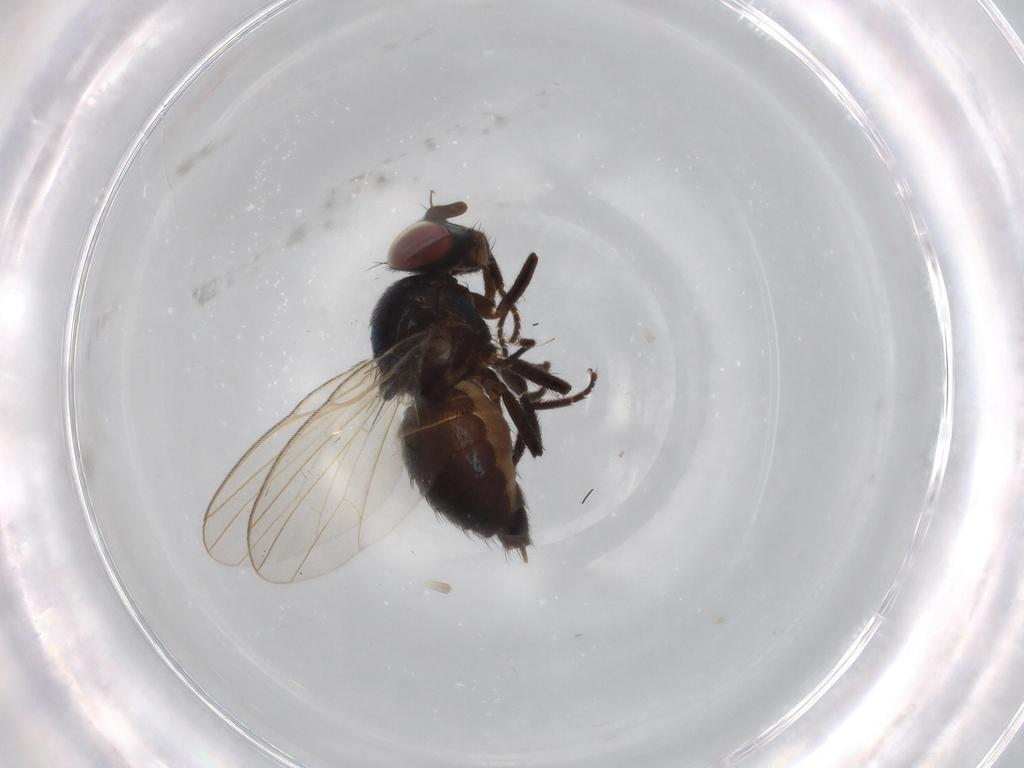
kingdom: Animalia
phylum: Arthropoda
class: Insecta
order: Diptera
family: Lonchaeidae
